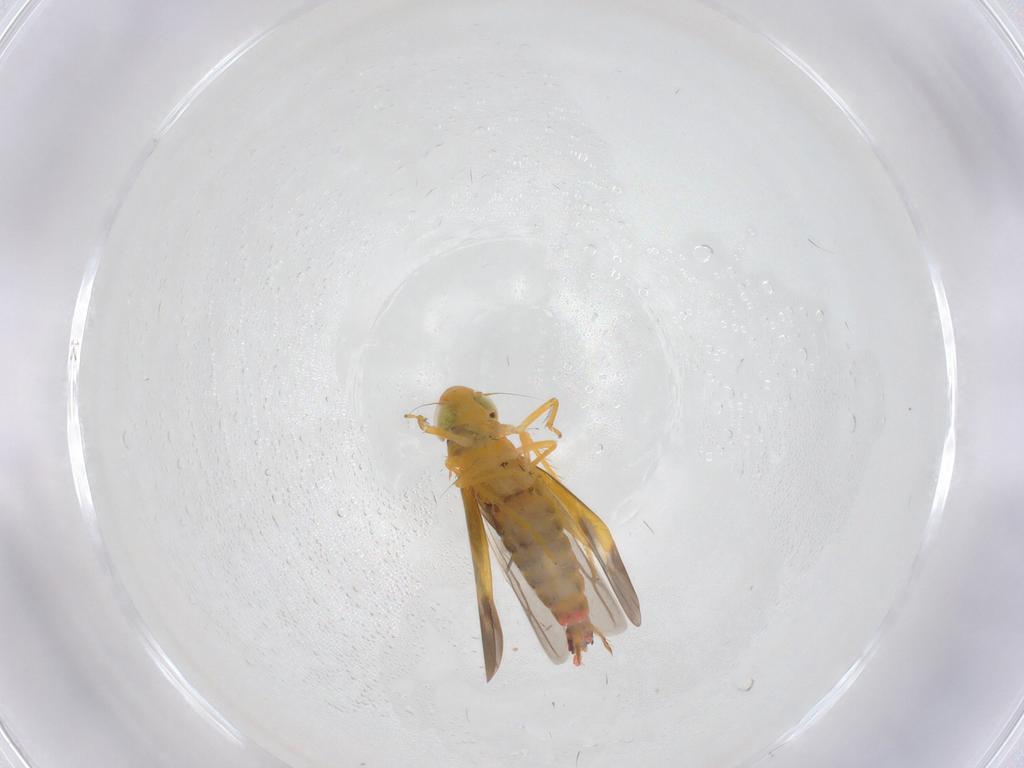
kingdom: Animalia
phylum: Arthropoda
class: Insecta
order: Hemiptera
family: Cicadellidae
